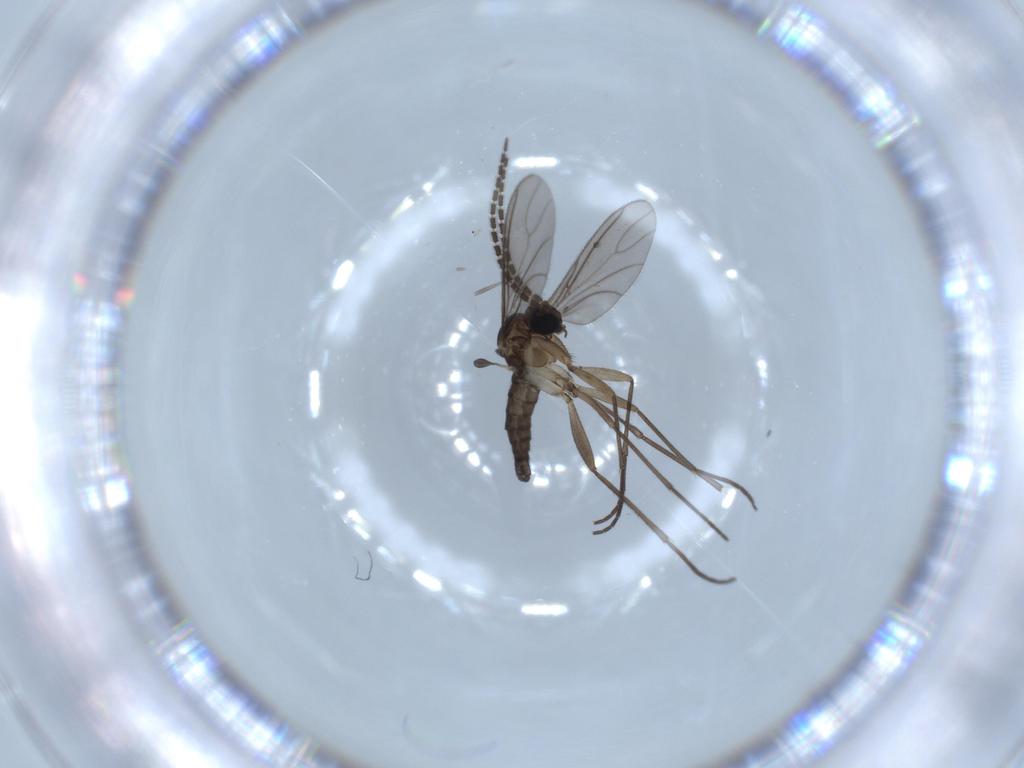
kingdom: Animalia
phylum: Arthropoda
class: Insecta
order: Diptera
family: Sciaridae
